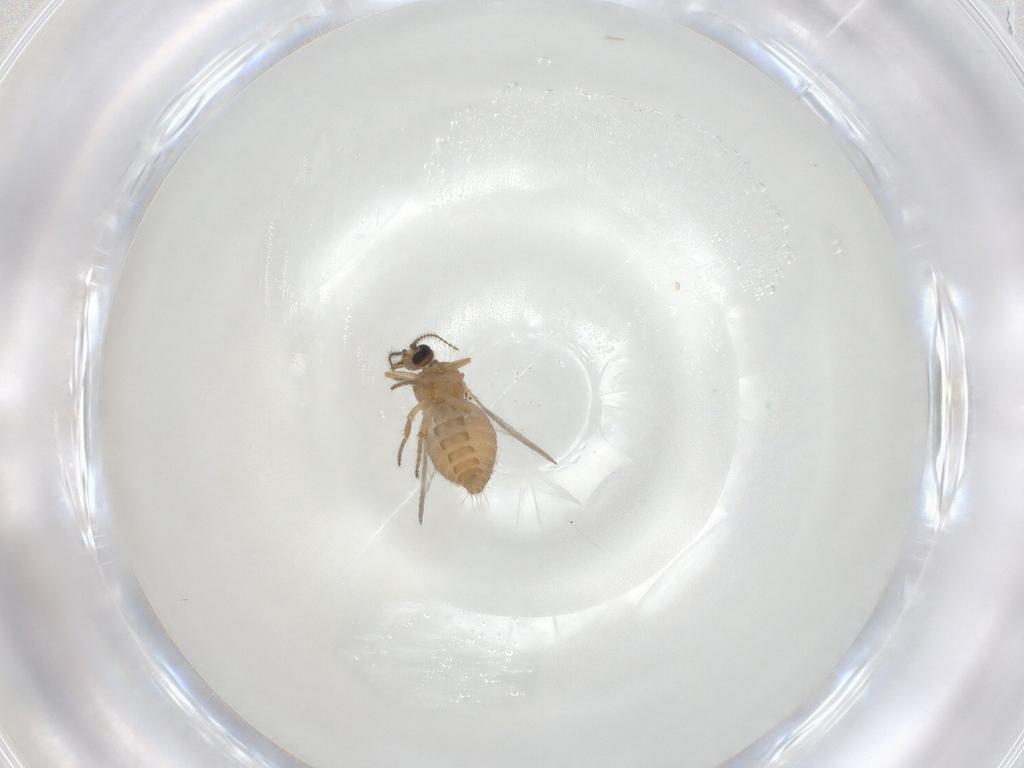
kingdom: Animalia
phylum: Arthropoda
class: Insecta
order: Diptera
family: Ceratopogonidae
